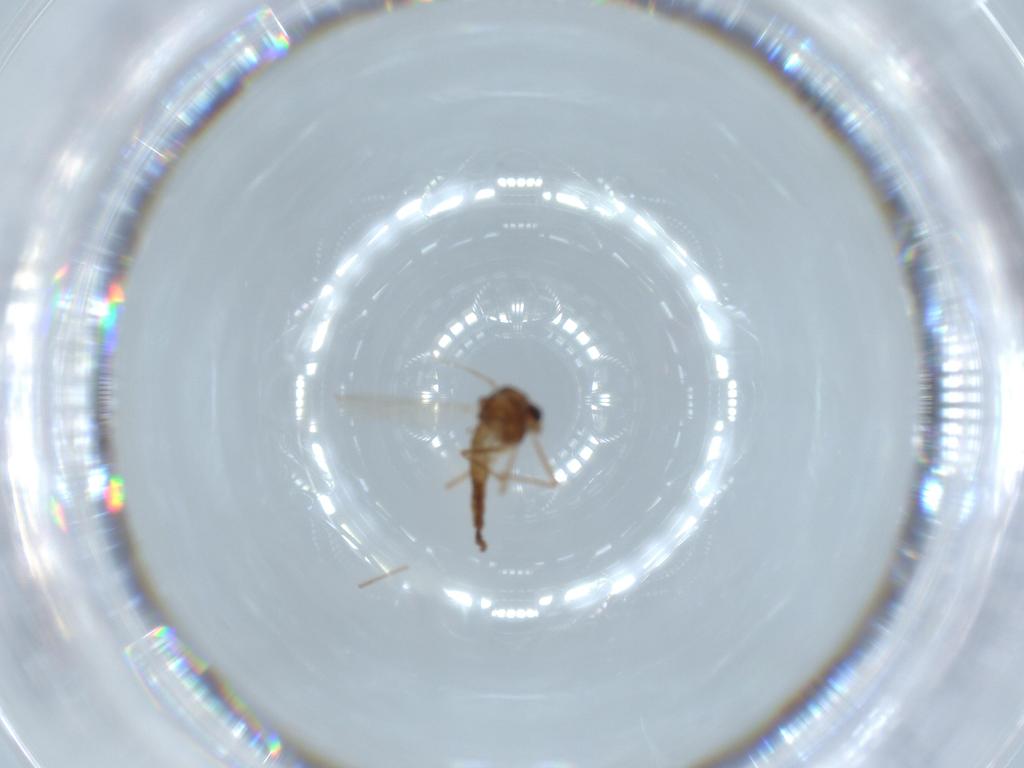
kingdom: Animalia
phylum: Arthropoda
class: Insecta
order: Diptera
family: Chironomidae
